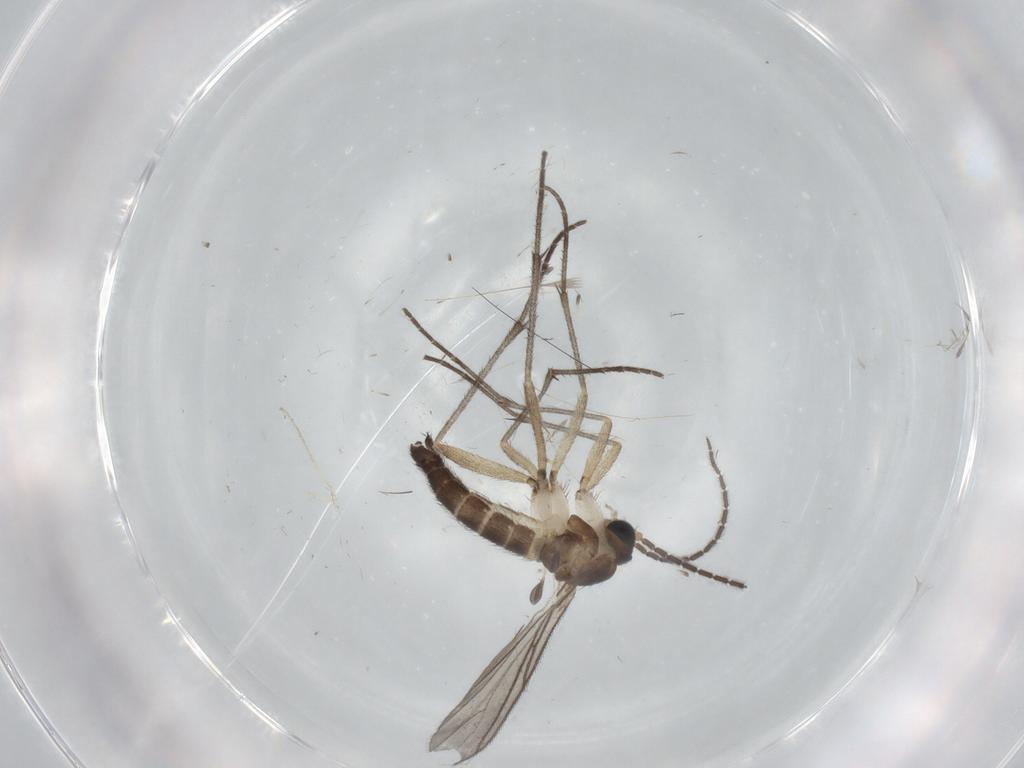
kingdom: Animalia
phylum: Arthropoda
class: Insecta
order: Diptera
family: Sciaridae
